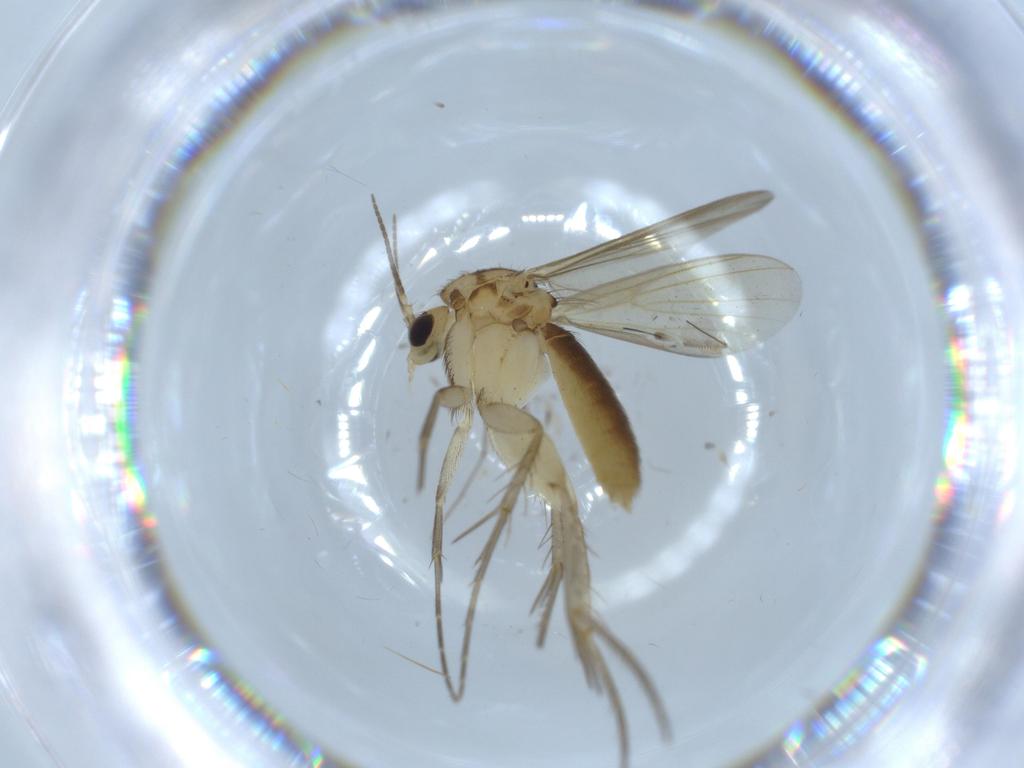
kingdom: Animalia
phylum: Arthropoda
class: Insecta
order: Diptera
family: Mycetophilidae
